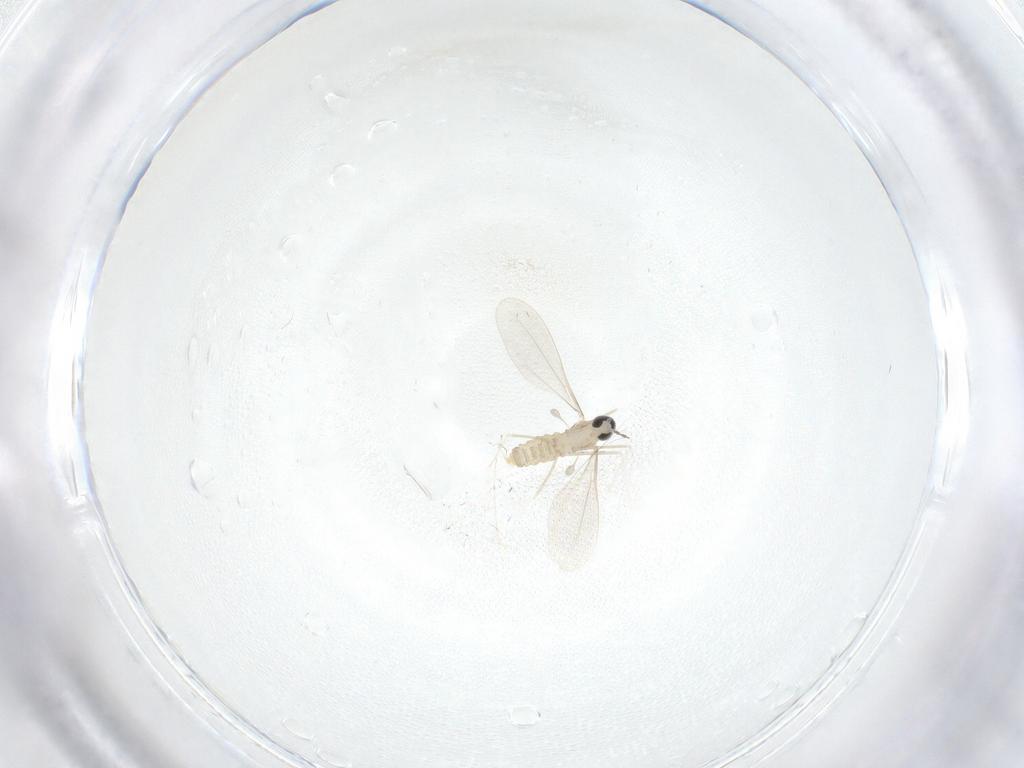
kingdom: Animalia
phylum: Arthropoda
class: Insecta
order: Diptera
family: Cecidomyiidae
